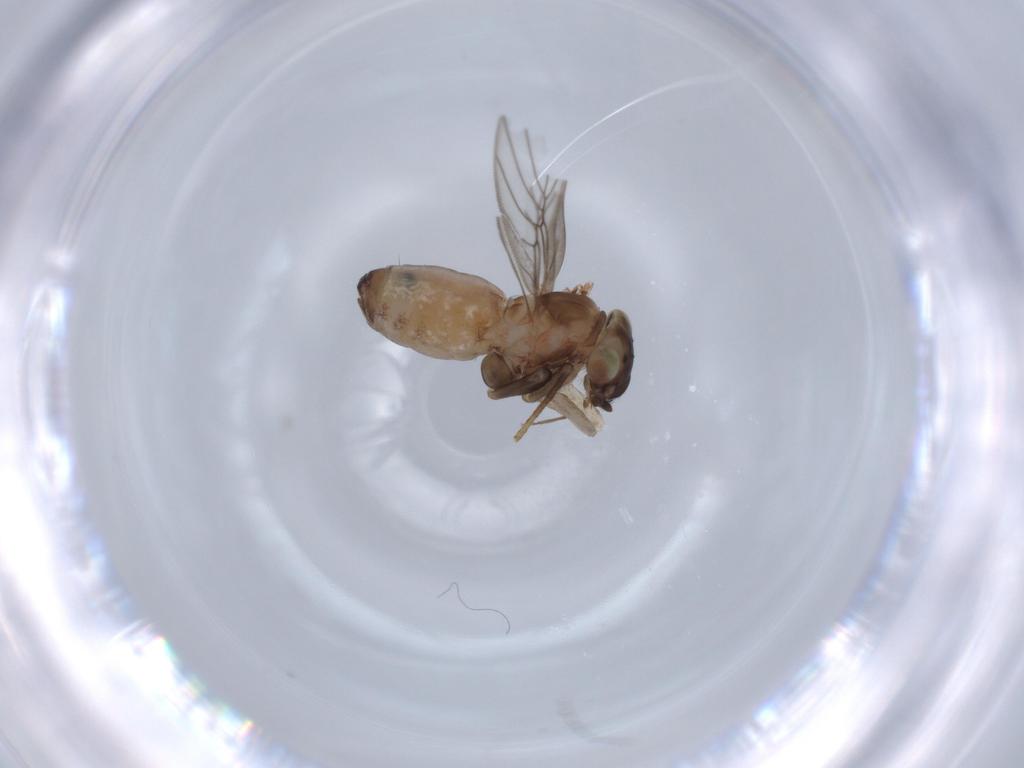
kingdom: Animalia
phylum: Arthropoda
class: Insecta
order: Psocodea
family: Lepidopsocidae
